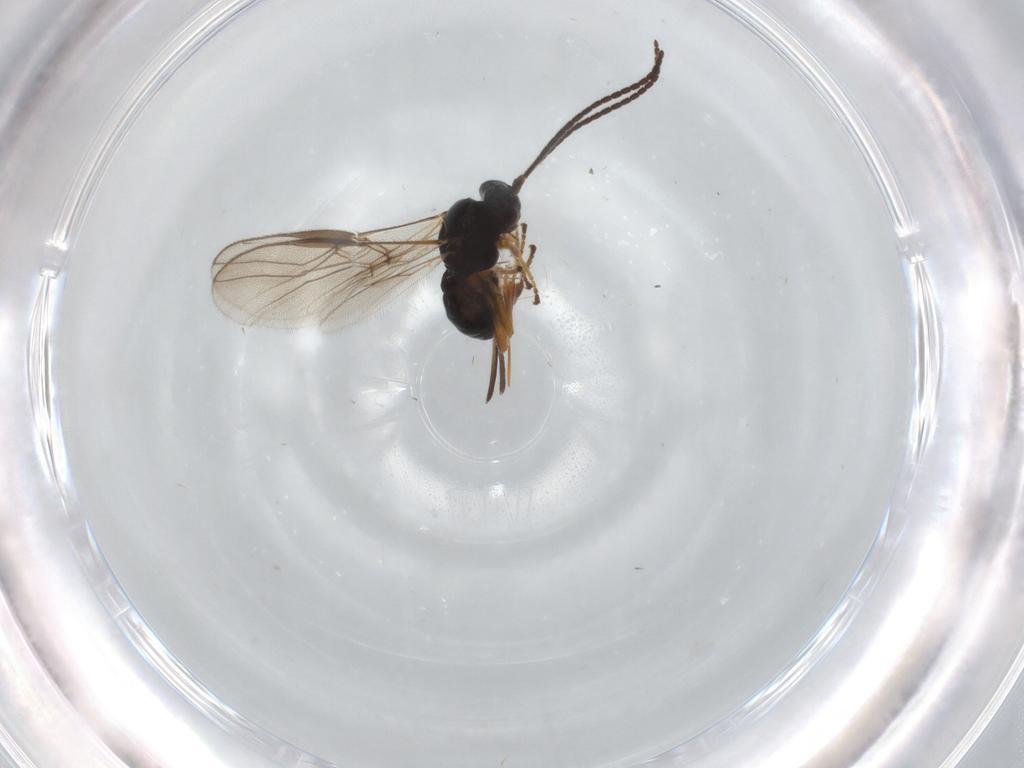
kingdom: Animalia
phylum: Arthropoda
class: Insecta
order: Hymenoptera
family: Braconidae
